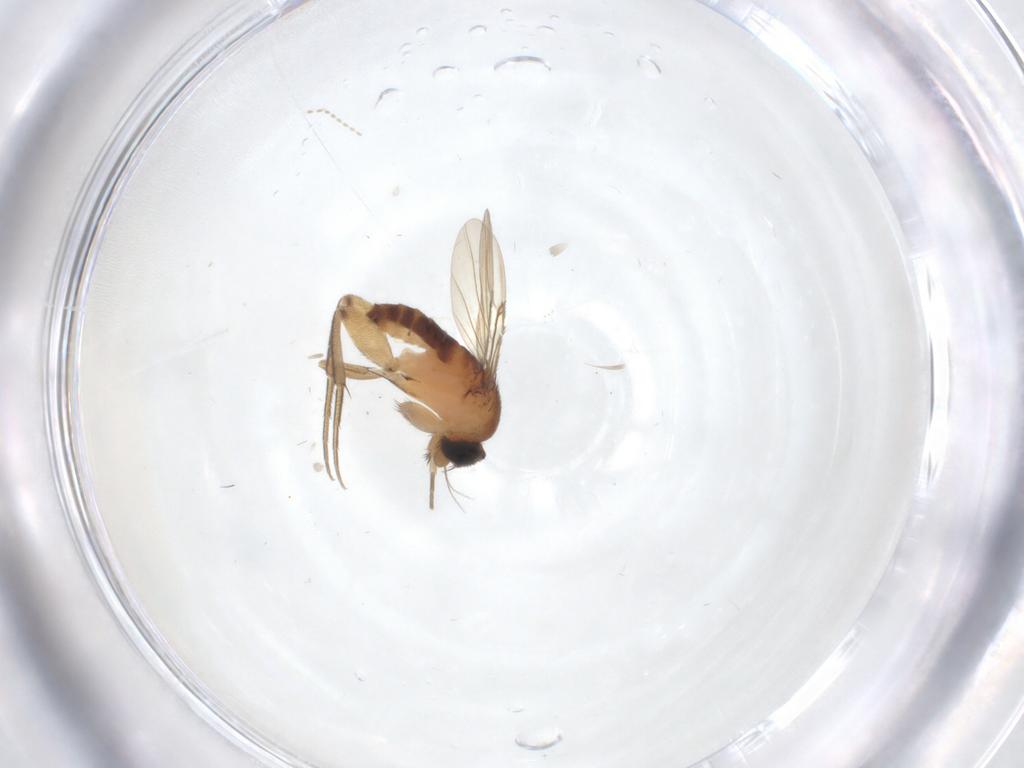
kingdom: Animalia
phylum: Arthropoda
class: Insecta
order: Diptera
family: Phoridae
